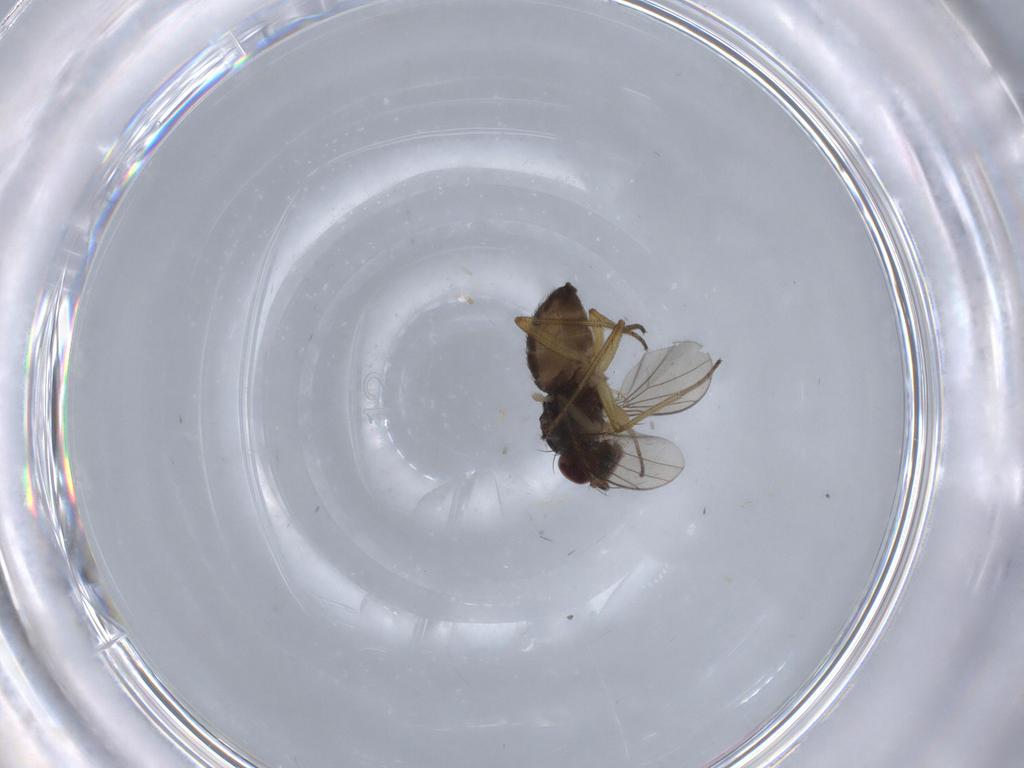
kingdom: Animalia
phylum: Arthropoda
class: Insecta
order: Diptera
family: Dolichopodidae
